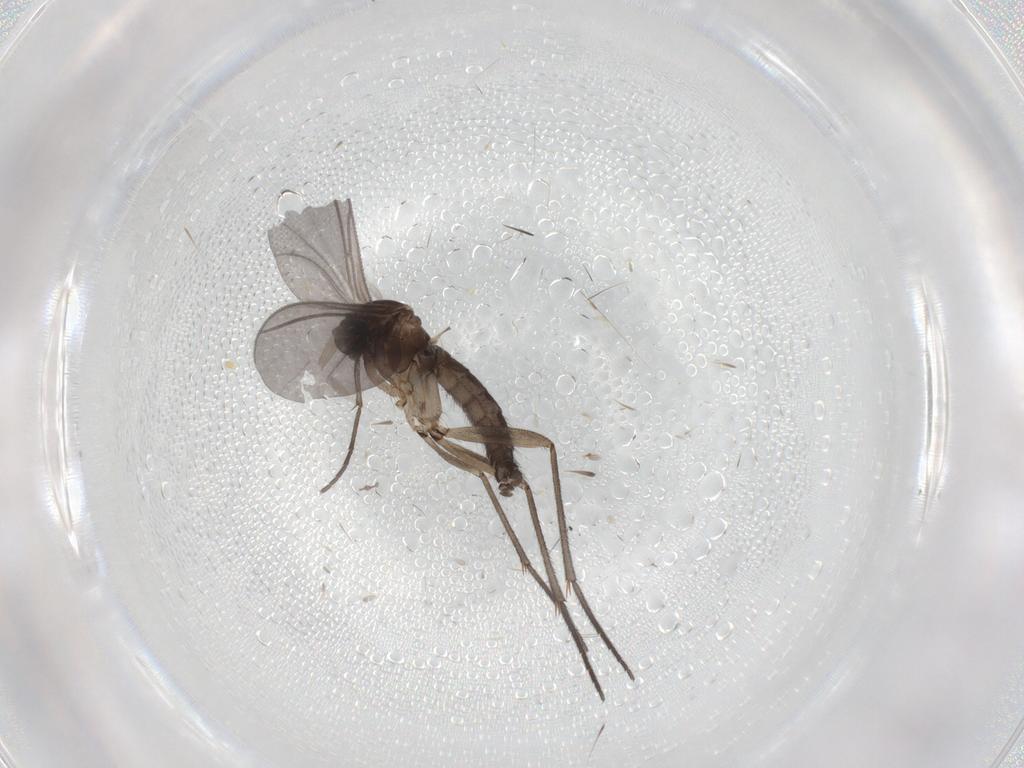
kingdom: Animalia
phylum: Arthropoda
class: Insecta
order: Diptera
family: Sciaridae
